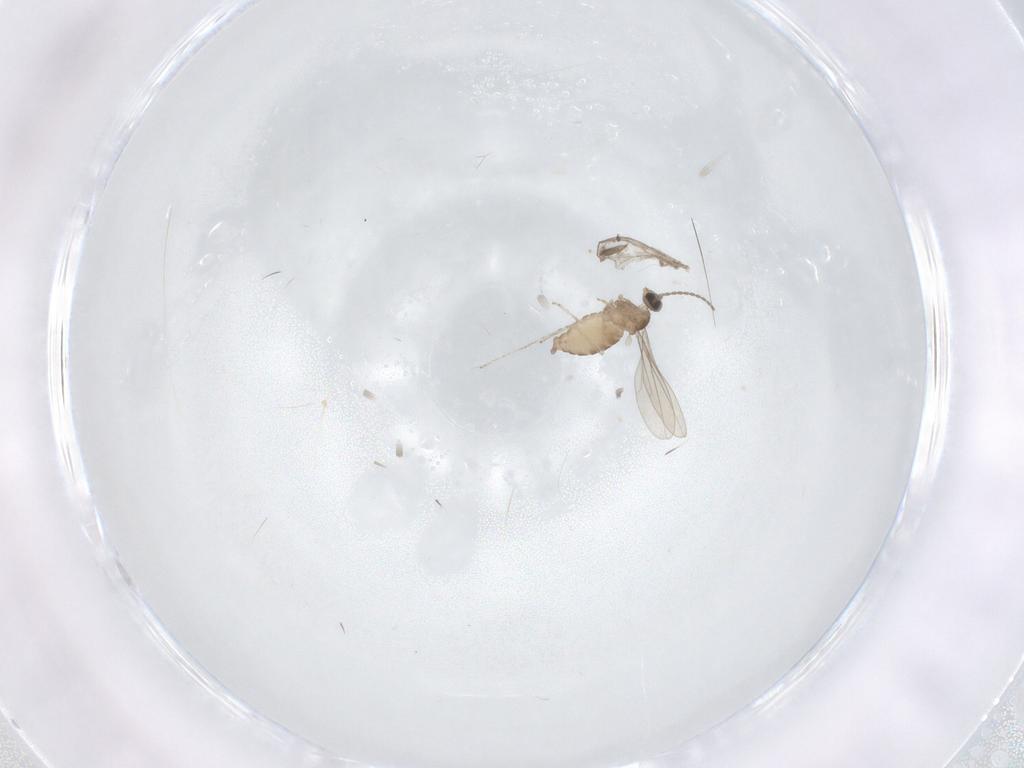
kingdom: Animalia
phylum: Arthropoda
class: Insecta
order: Diptera
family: Cecidomyiidae
